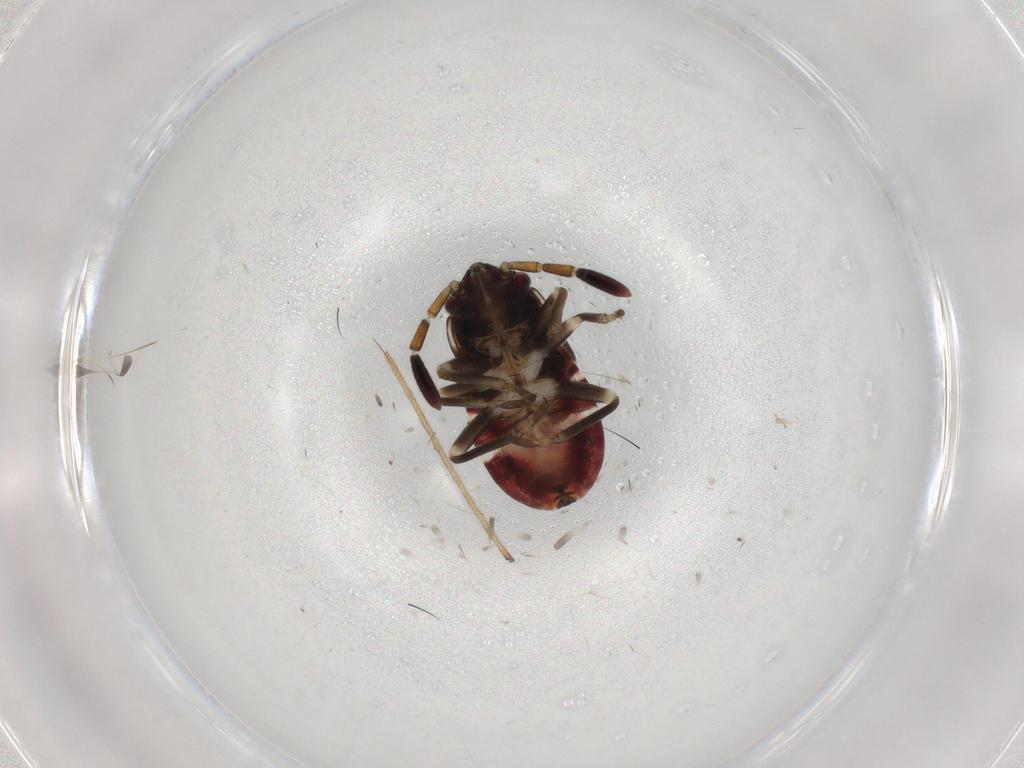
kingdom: Animalia
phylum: Arthropoda
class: Insecta
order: Hemiptera
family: Rhyparochromidae
